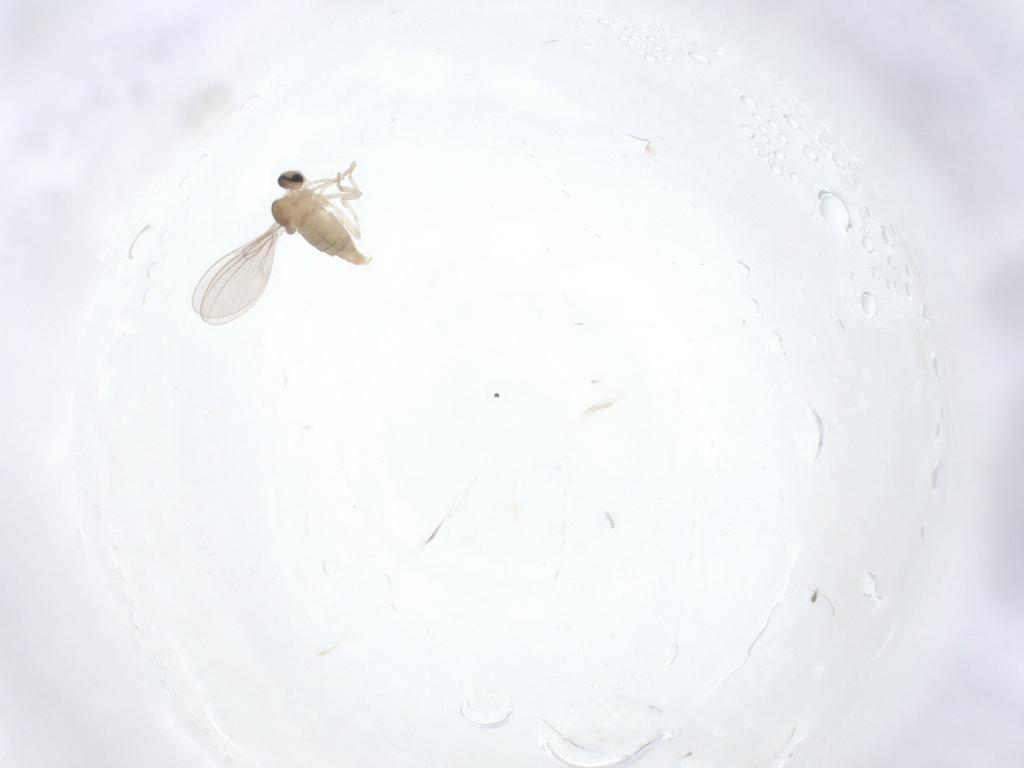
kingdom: Animalia
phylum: Arthropoda
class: Insecta
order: Diptera
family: Cecidomyiidae
